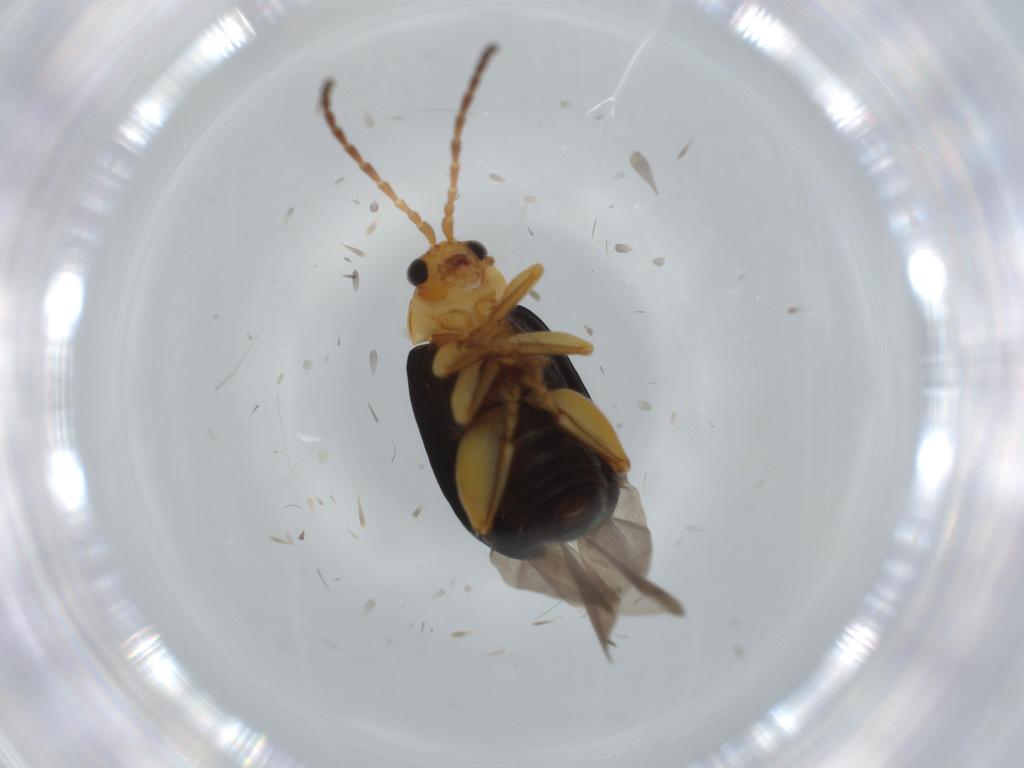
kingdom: Animalia
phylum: Arthropoda
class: Insecta
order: Coleoptera
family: Chrysomelidae
